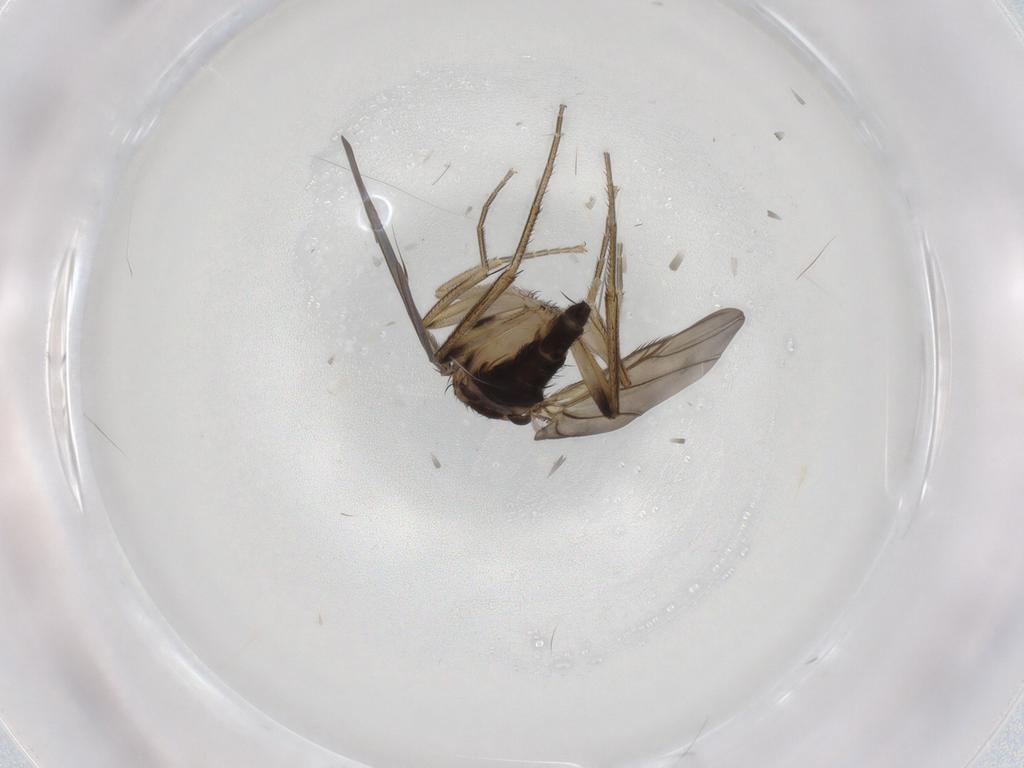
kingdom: Animalia
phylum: Arthropoda
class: Insecta
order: Diptera
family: Phoridae
